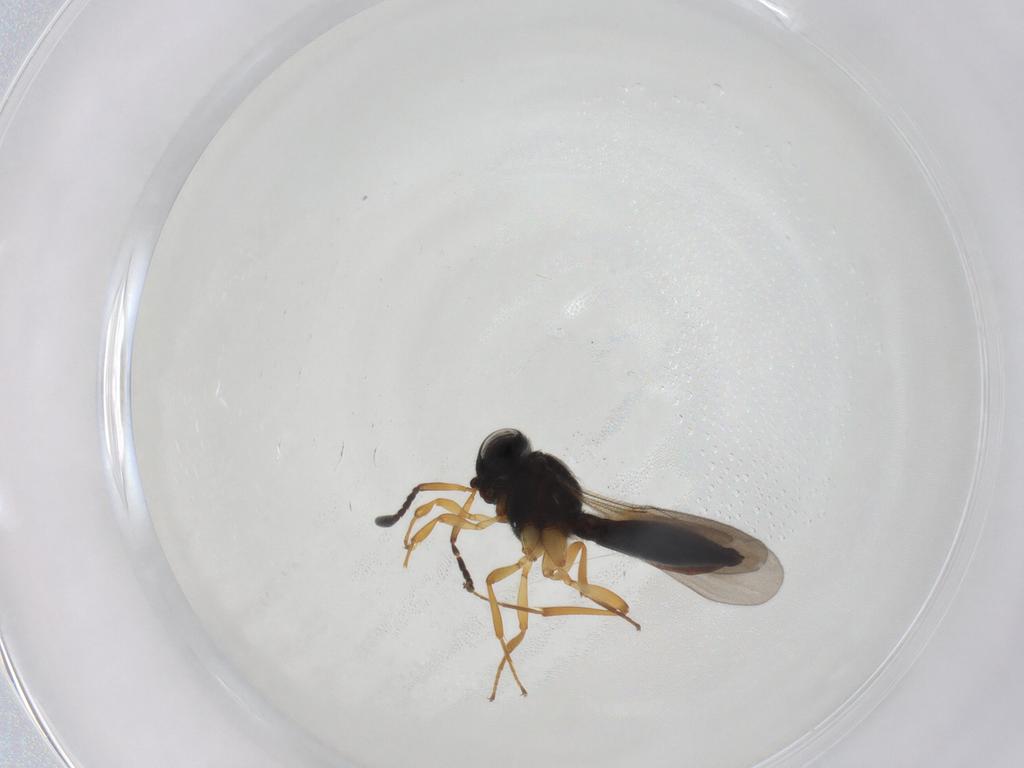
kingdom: Animalia
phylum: Arthropoda
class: Insecta
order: Hymenoptera
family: Scelionidae
